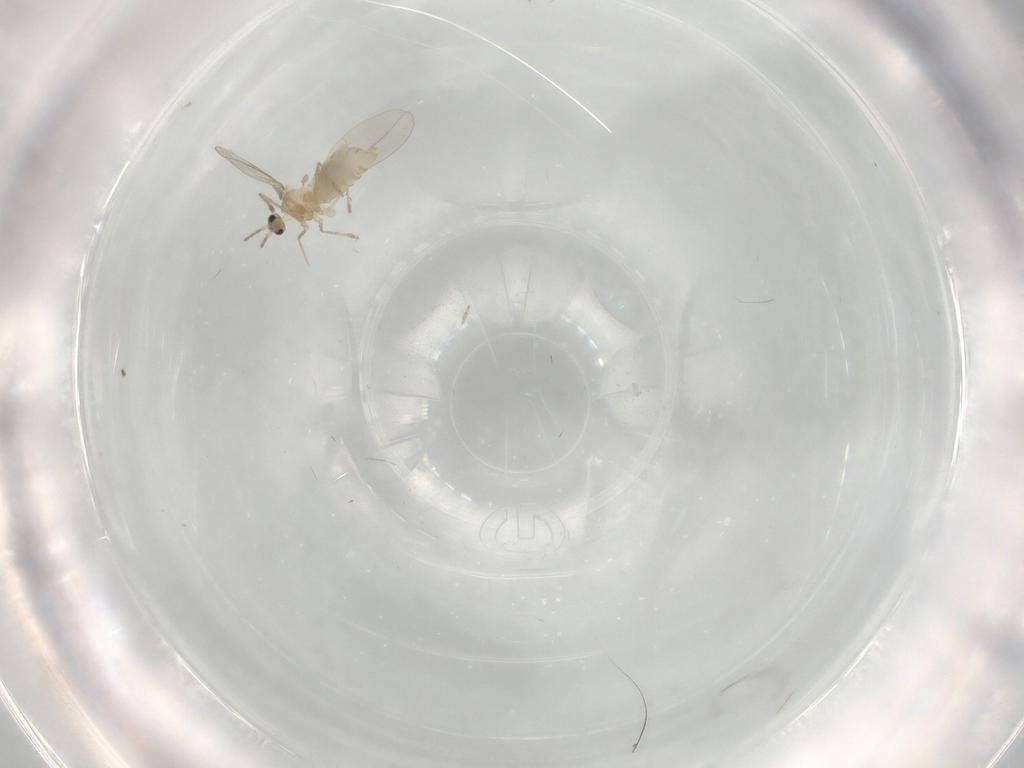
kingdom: Animalia
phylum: Arthropoda
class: Insecta
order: Diptera
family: Cecidomyiidae
